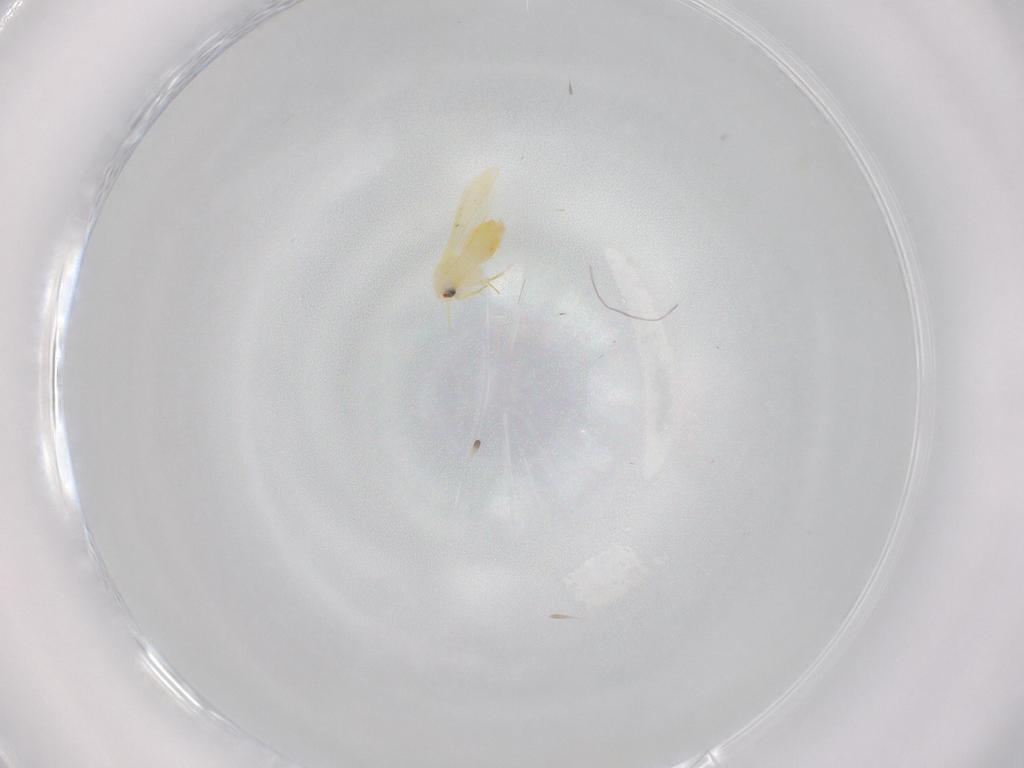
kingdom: Animalia
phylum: Arthropoda
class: Insecta
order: Hemiptera
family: Aleyrodidae
